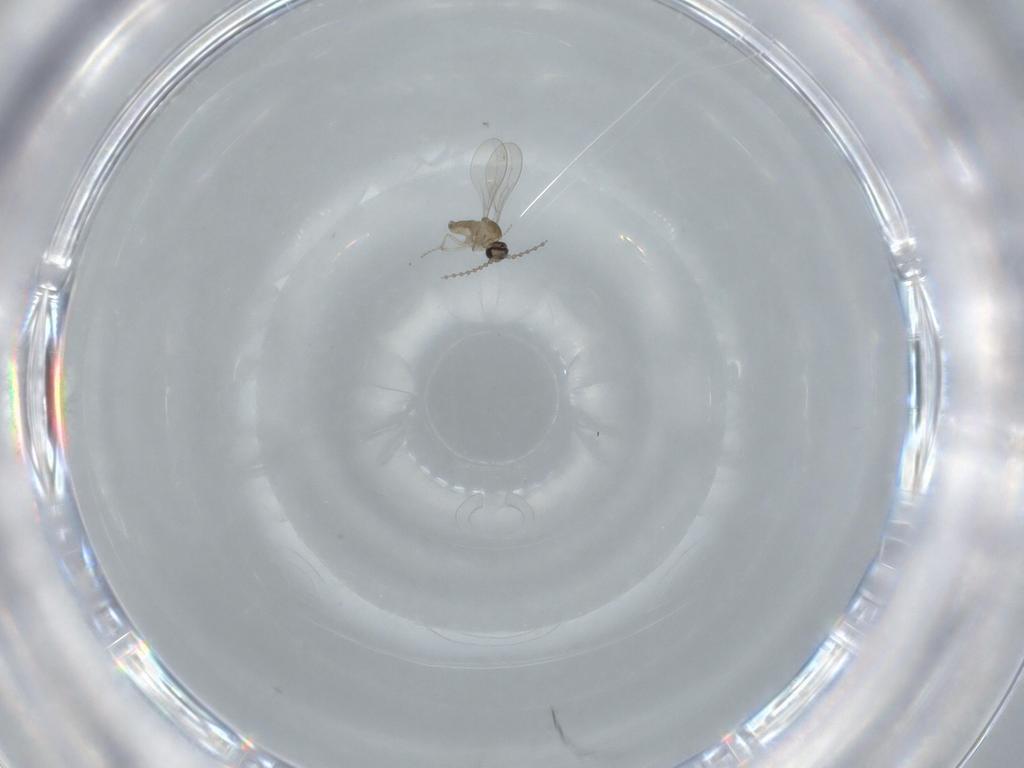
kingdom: Animalia
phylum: Arthropoda
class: Insecta
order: Diptera
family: Cecidomyiidae
